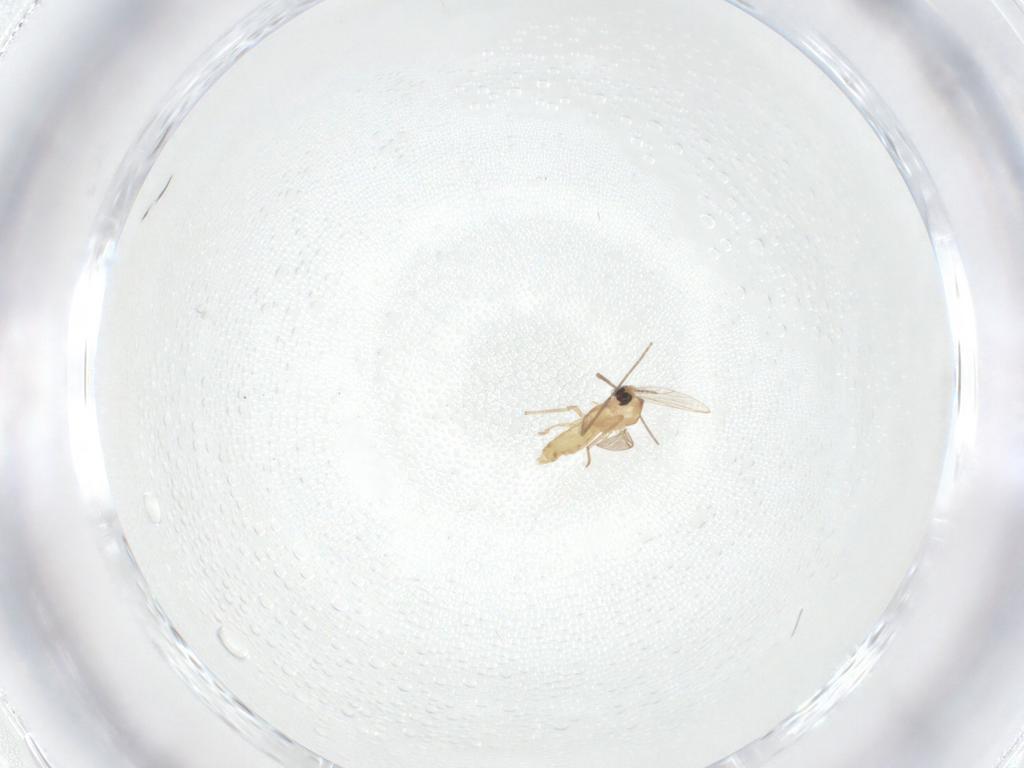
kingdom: Animalia
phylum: Arthropoda
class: Insecta
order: Diptera
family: Chironomidae
